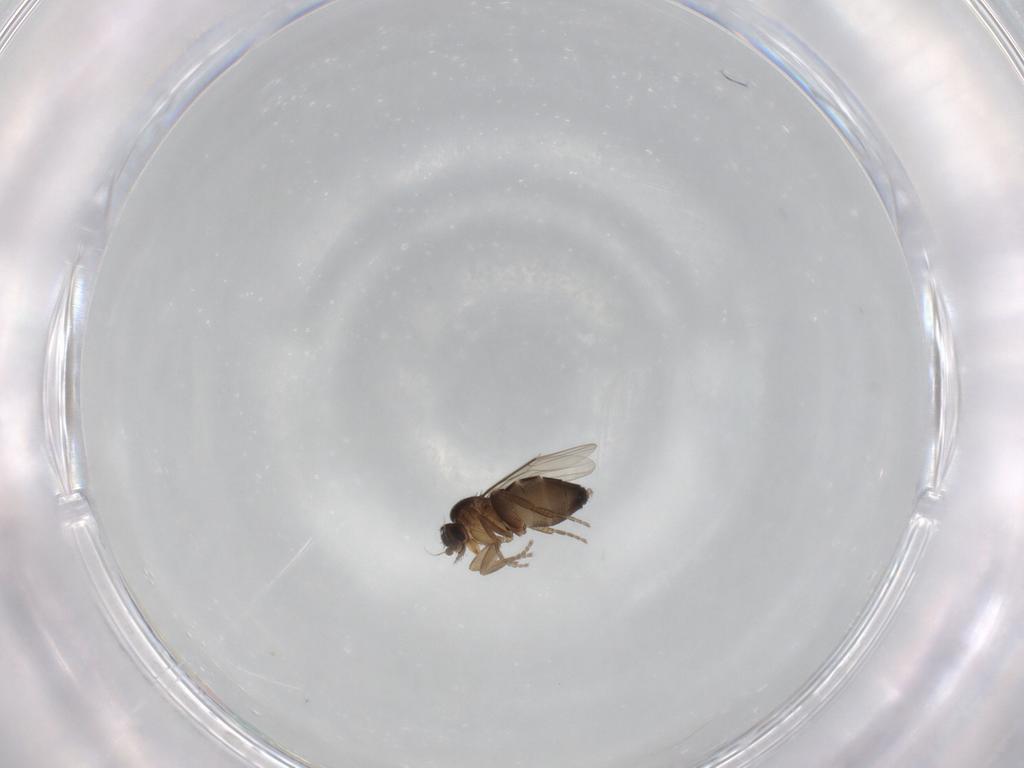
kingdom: Animalia
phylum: Arthropoda
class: Insecta
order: Diptera
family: Phoridae
